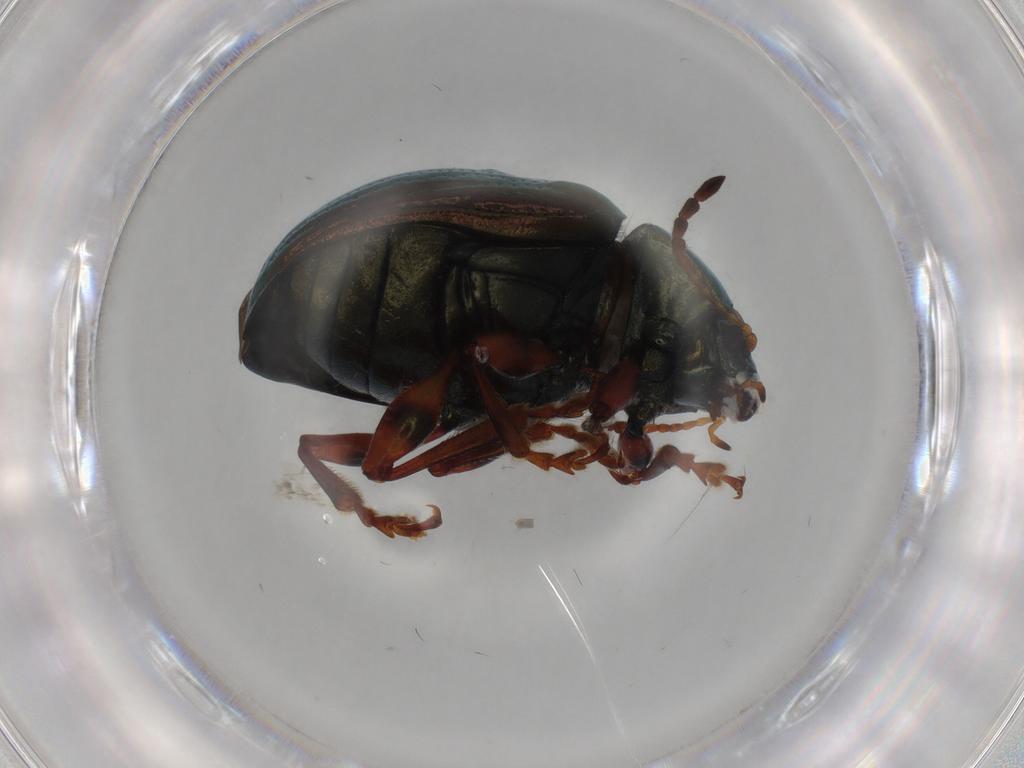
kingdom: Animalia
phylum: Arthropoda
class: Insecta
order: Coleoptera
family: Chrysomelidae
